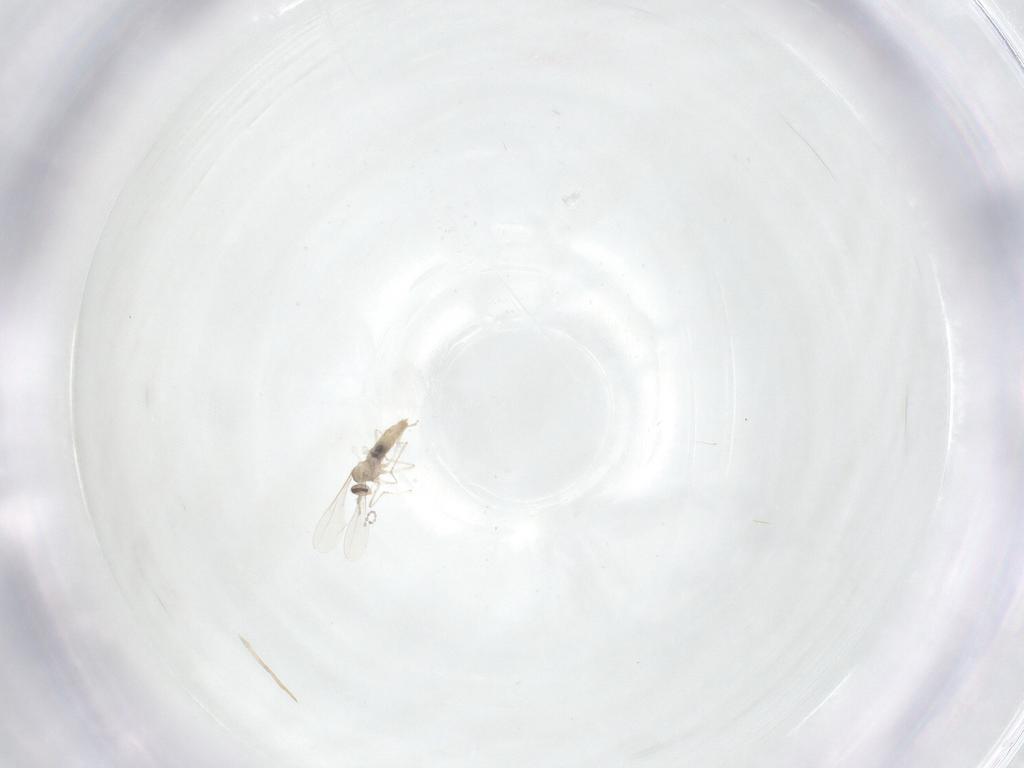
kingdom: Animalia
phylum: Arthropoda
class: Insecta
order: Diptera
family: Cecidomyiidae
